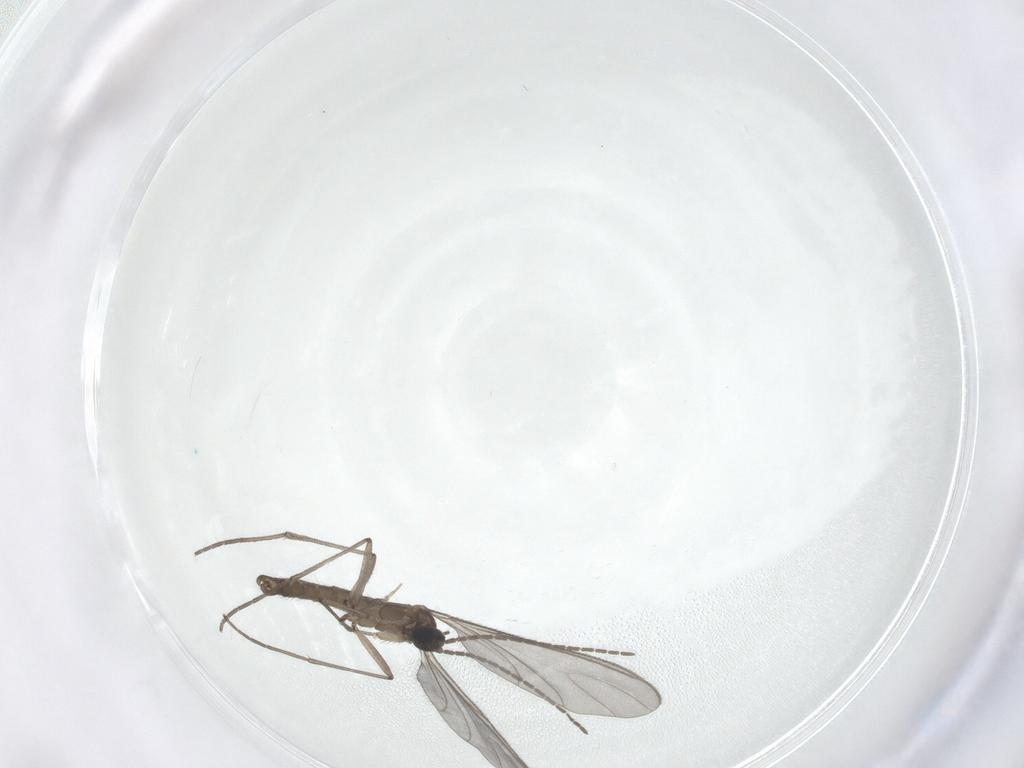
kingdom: Animalia
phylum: Arthropoda
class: Insecta
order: Diptera
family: Sciaridae
